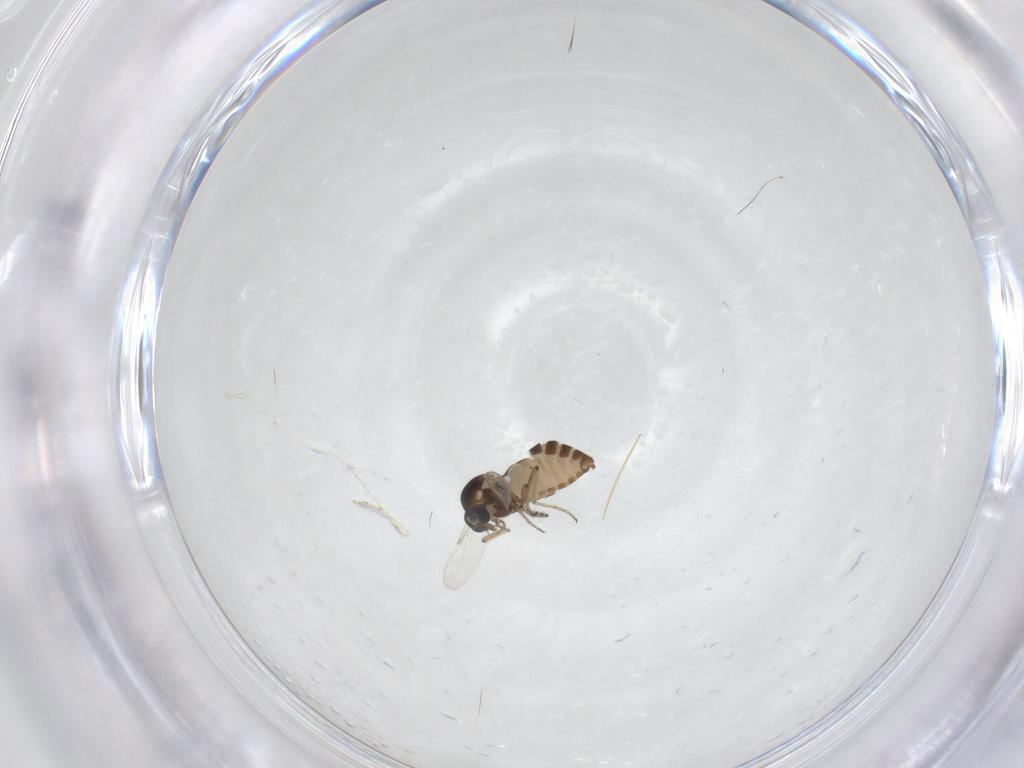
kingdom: Animalia
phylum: Arthropoda
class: Insecta
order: Diptera
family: Ceratopogonidae
